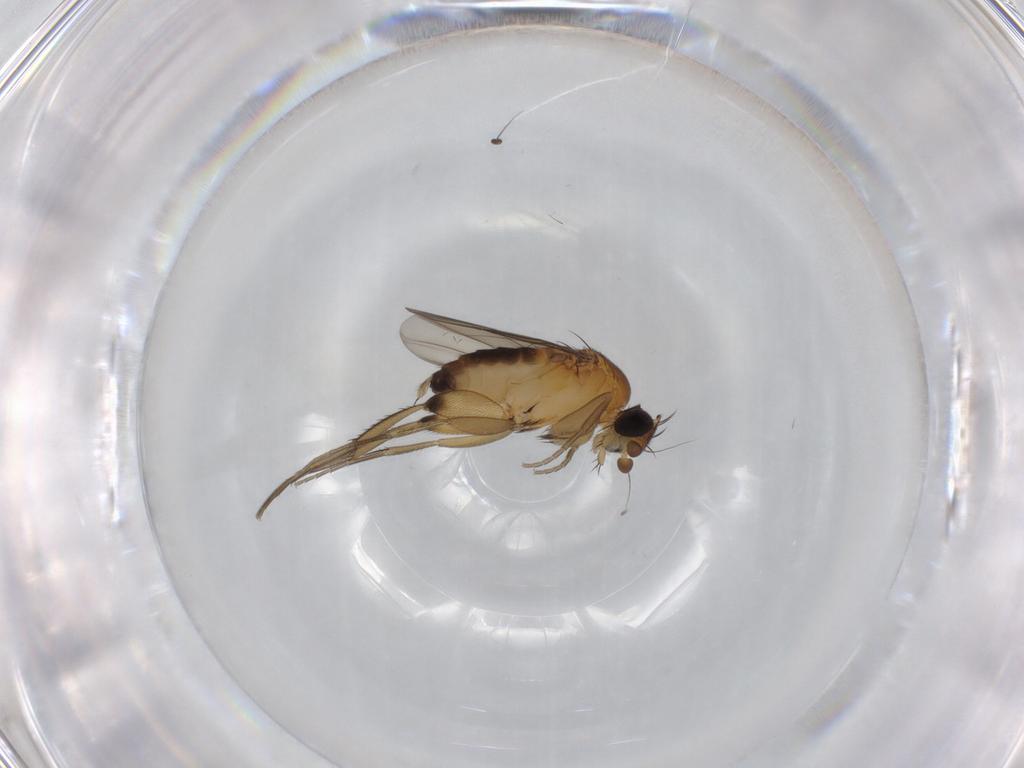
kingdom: Animalia
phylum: Arthropoda
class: Insecta
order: Diptera
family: Phoridae
